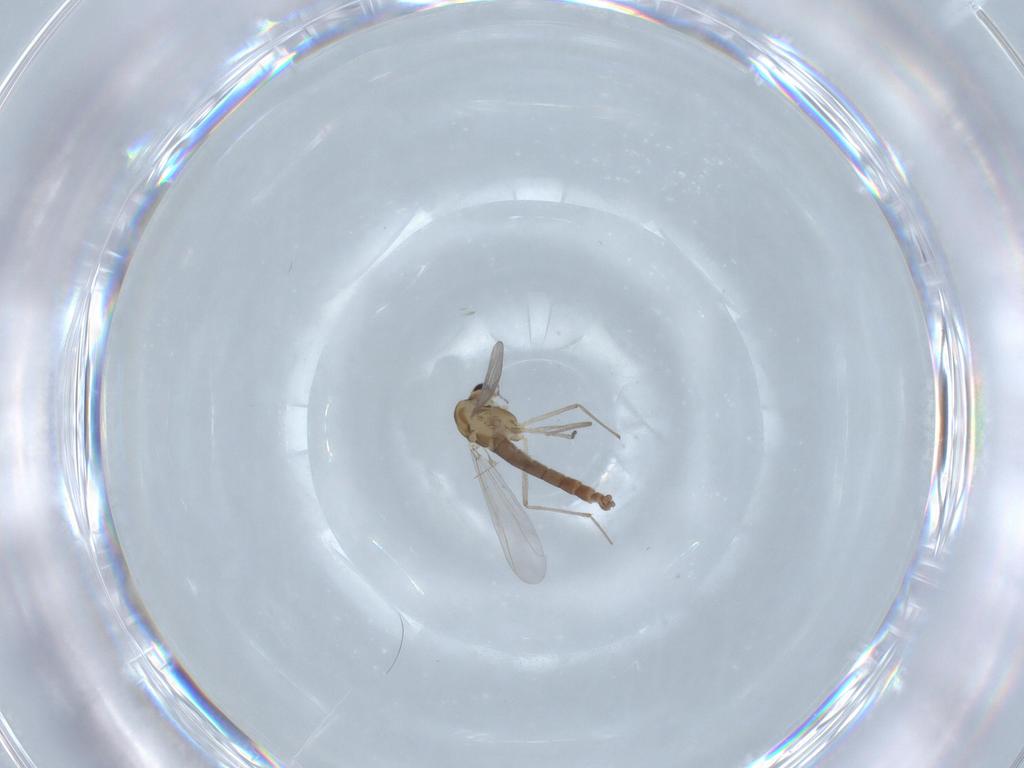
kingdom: Animalia
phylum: Arthropoda
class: Insecta
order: Diptera
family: Chironomidae
